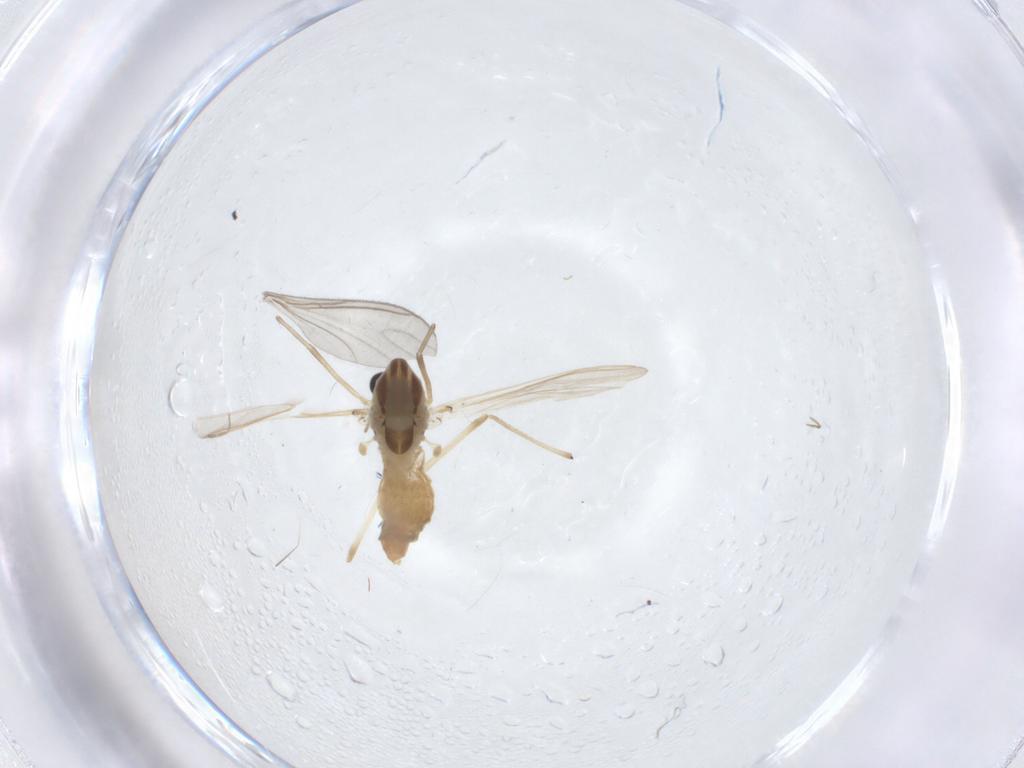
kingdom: Animalia
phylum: Arthropoda
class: Insecta
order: Diptera
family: Chironomidae
